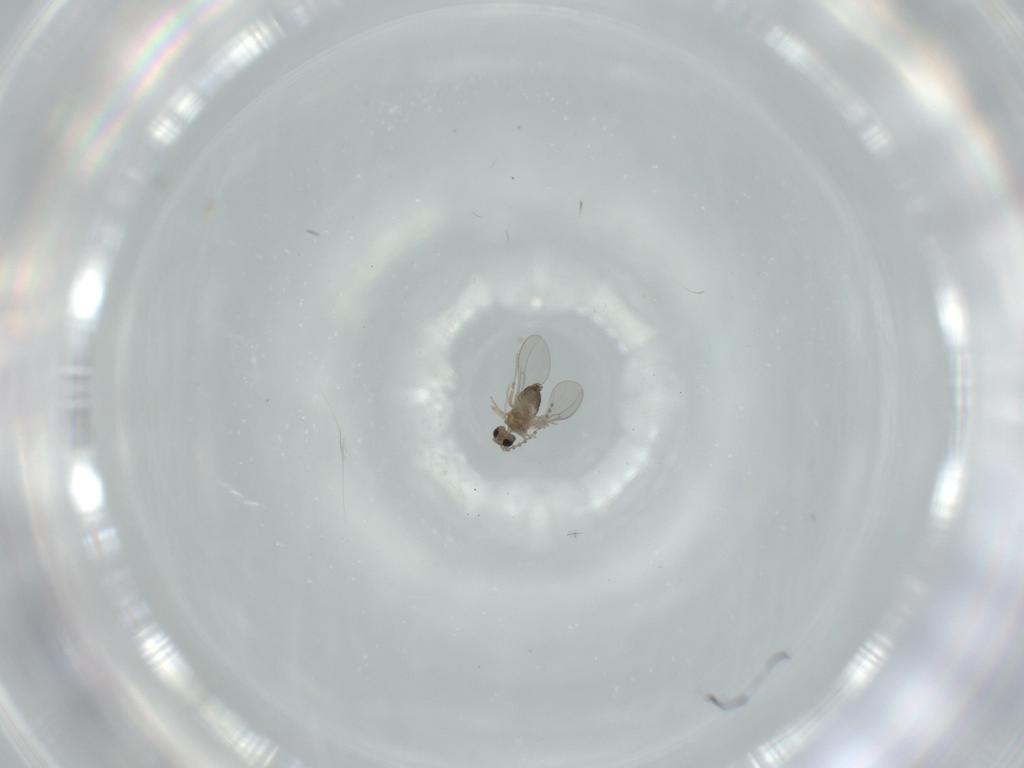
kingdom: Animalia
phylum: Arthropoda
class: Insecta
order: Diptera
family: Cecidomyiidae
